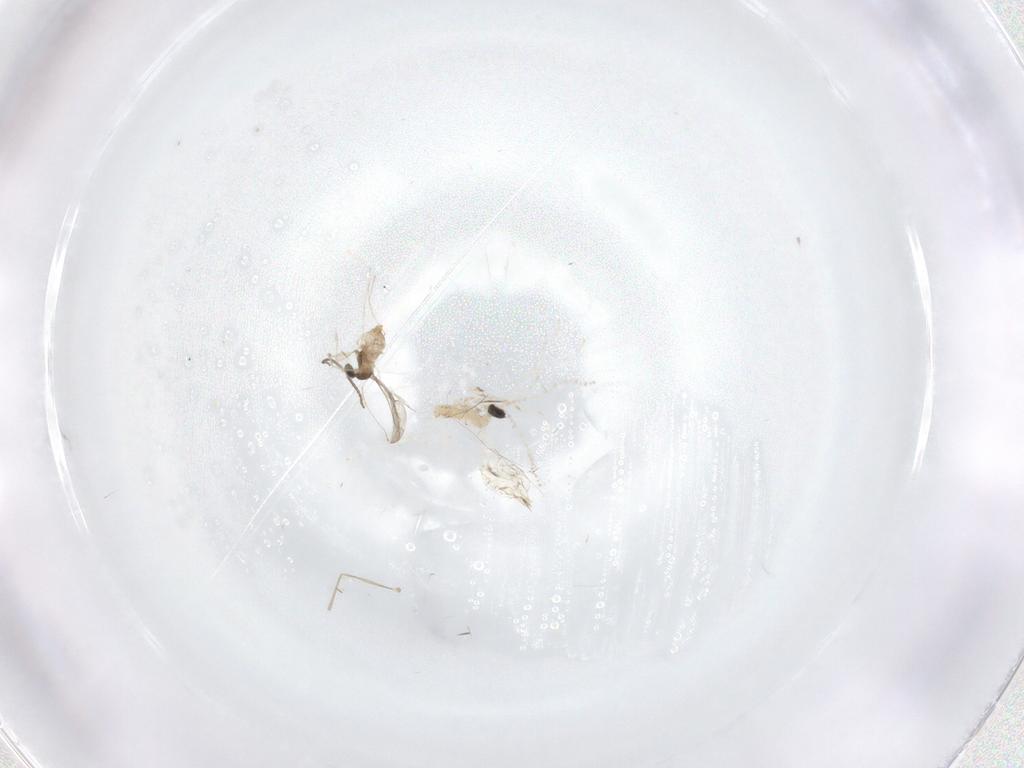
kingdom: Animalia
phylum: Arthropoda
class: Insecta
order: Diptera
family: Cecidomyiidae
